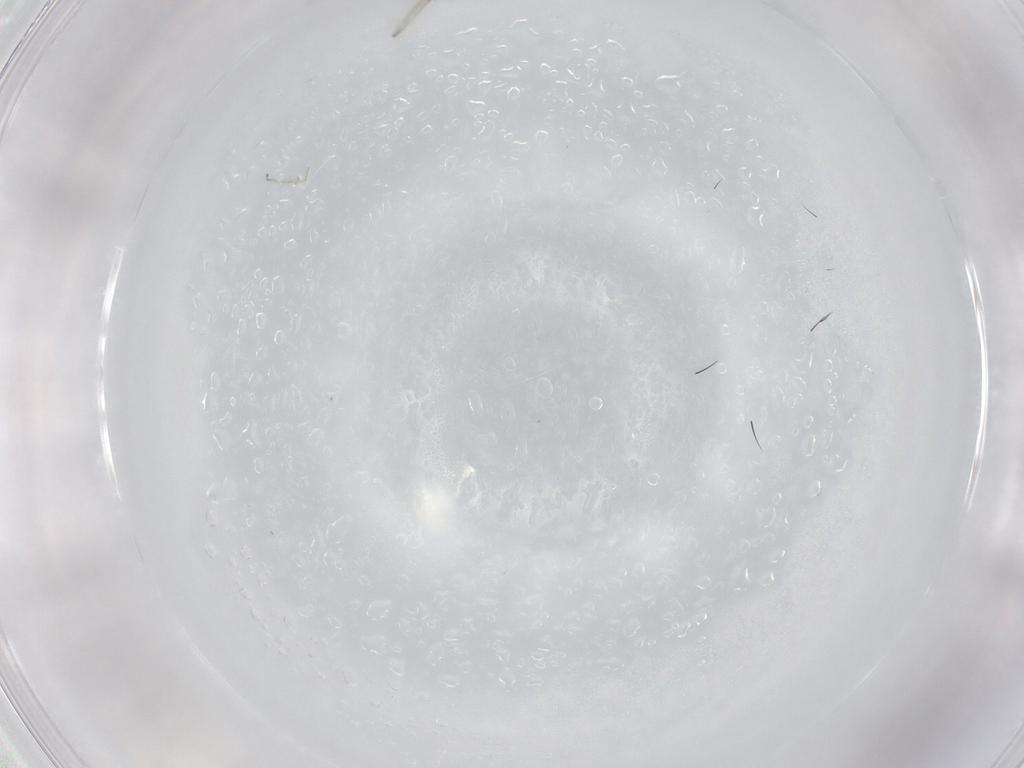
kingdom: Animalia
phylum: Arthropoda
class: Insecta
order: Diptera
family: Cecidomyiidae
